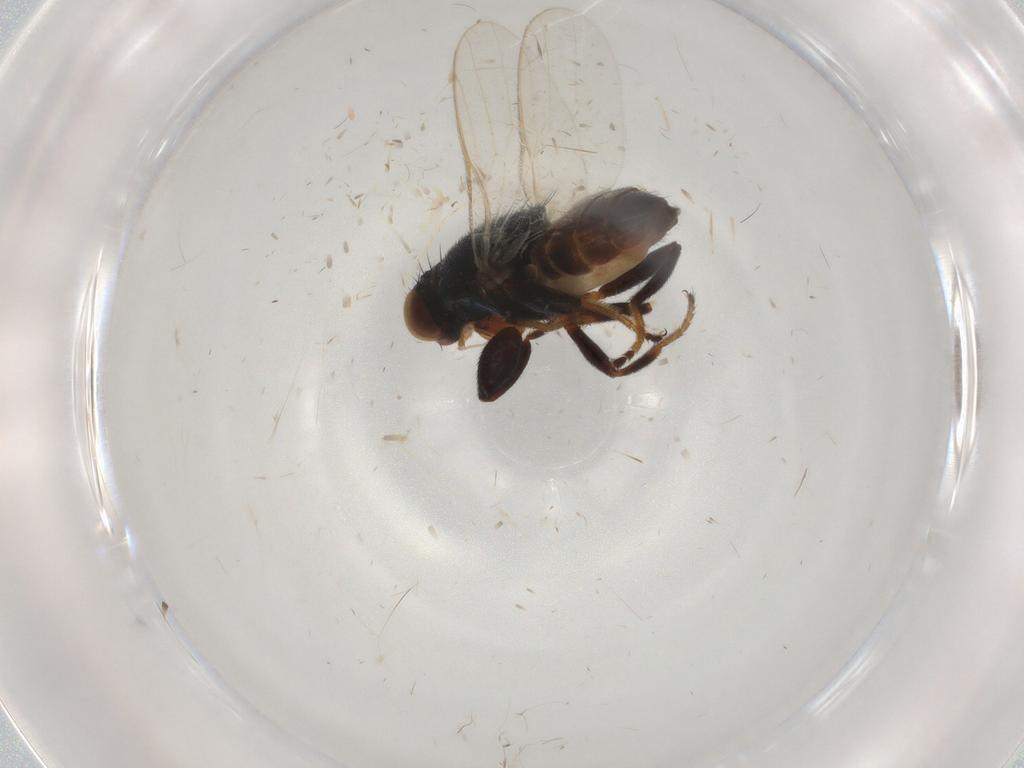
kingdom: Animalia
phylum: Arthropoda
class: Insecta
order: Diptera
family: Chloropidae
